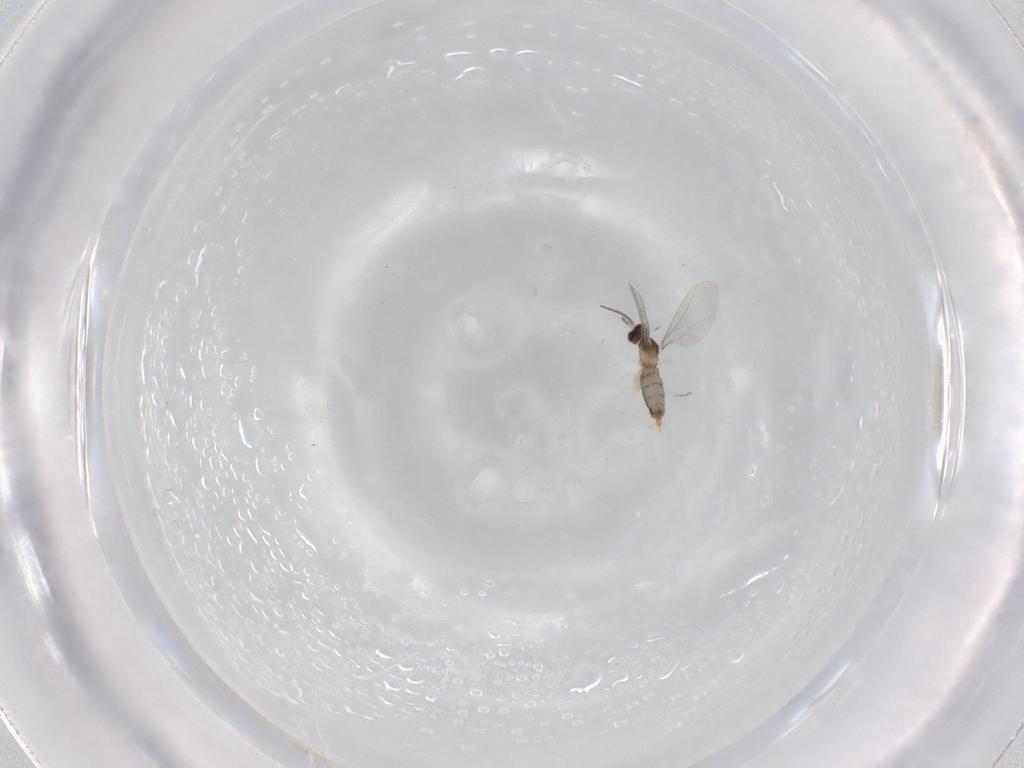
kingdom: Animalia
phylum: Arthropoda
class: Insecta
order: Diptera
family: Cecidomyiidae
